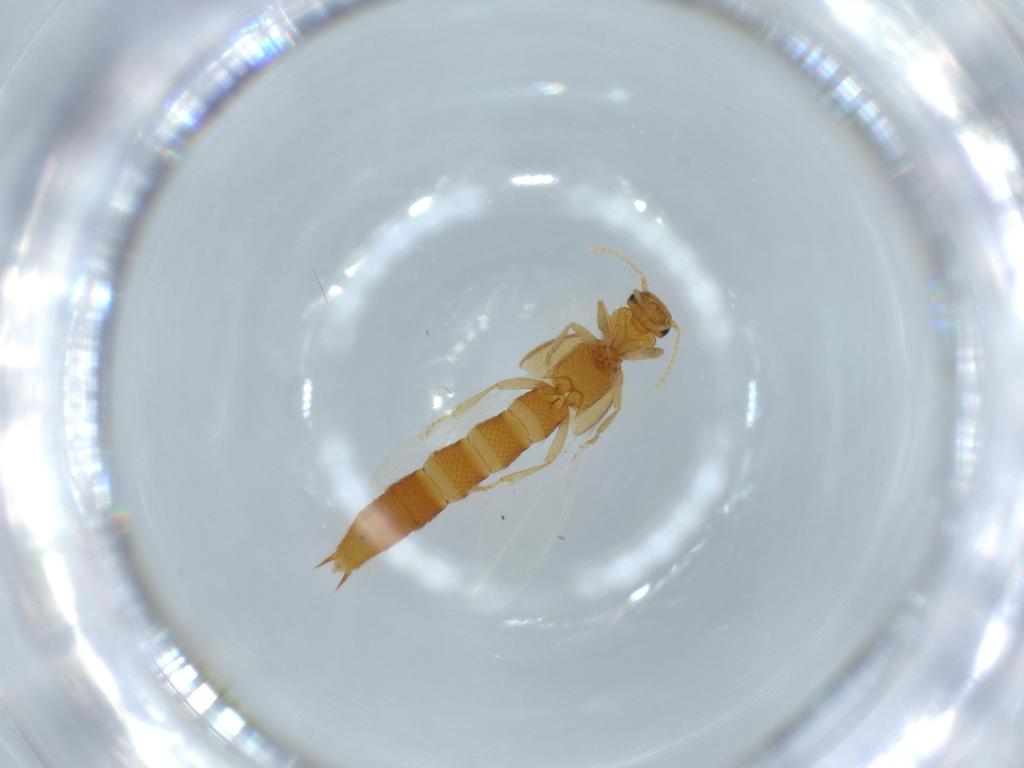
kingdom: Animalia
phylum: Arthropoda
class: Insecta
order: Coleoptera
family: Staphylinidae
